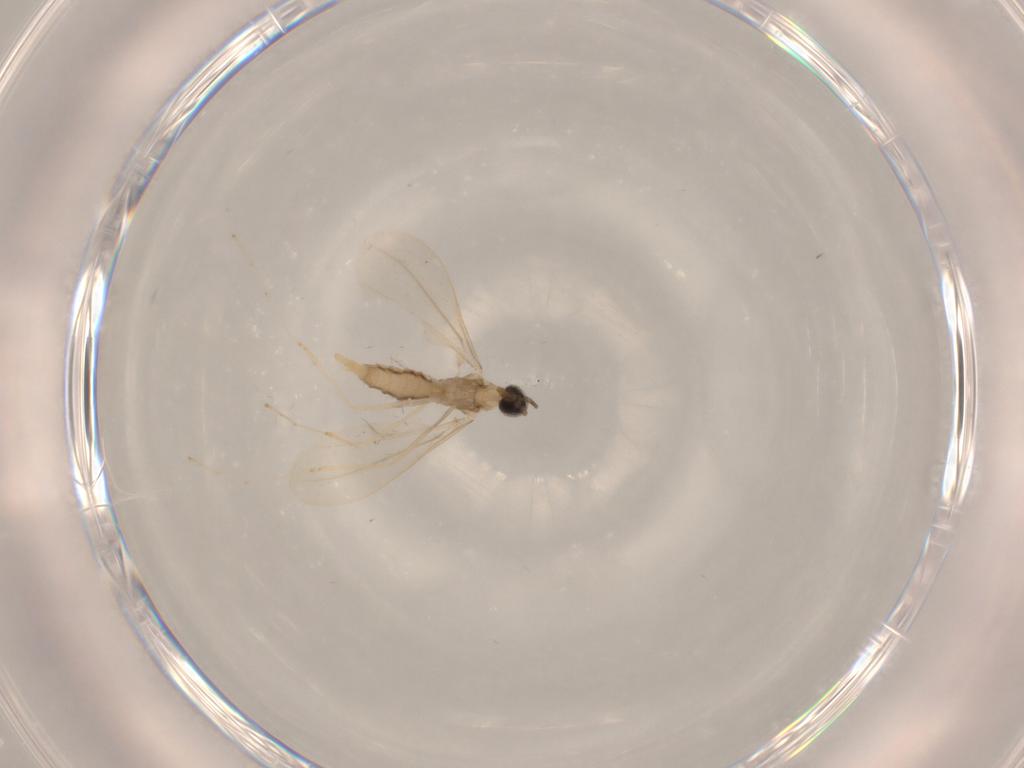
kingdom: Animalia
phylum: Arthropoda
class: Insecta
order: Diptera
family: Cecidomyiidae
